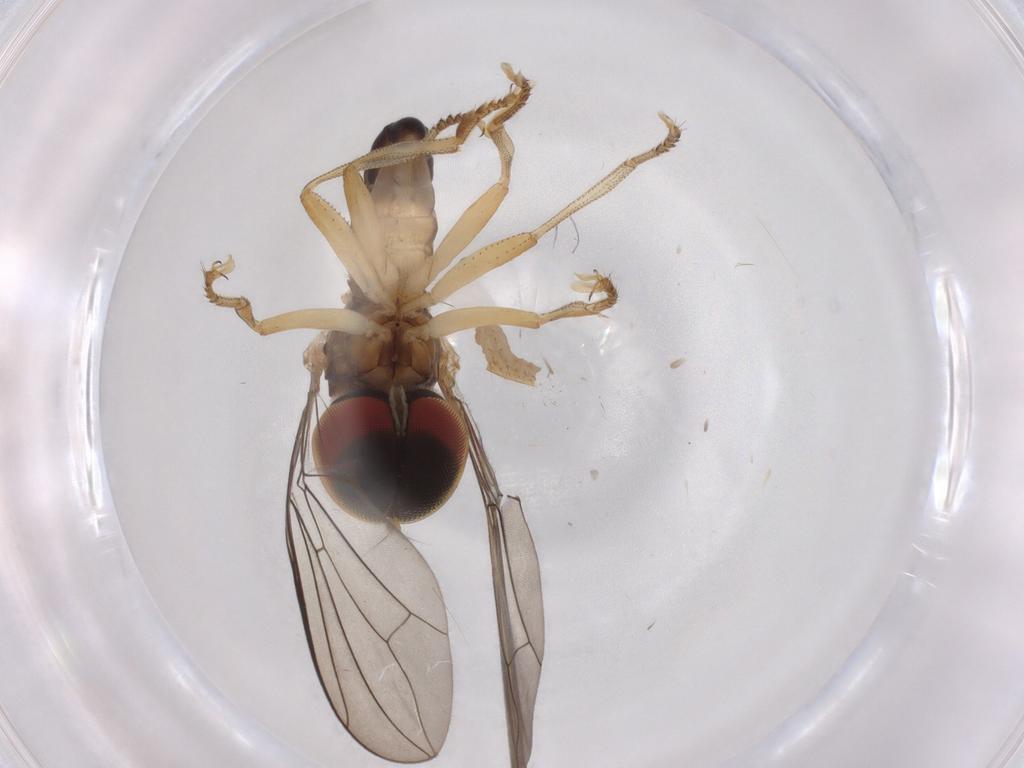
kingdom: Animalia
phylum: Arthropoda
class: Insecta
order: Diptera
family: Pipunculidae
